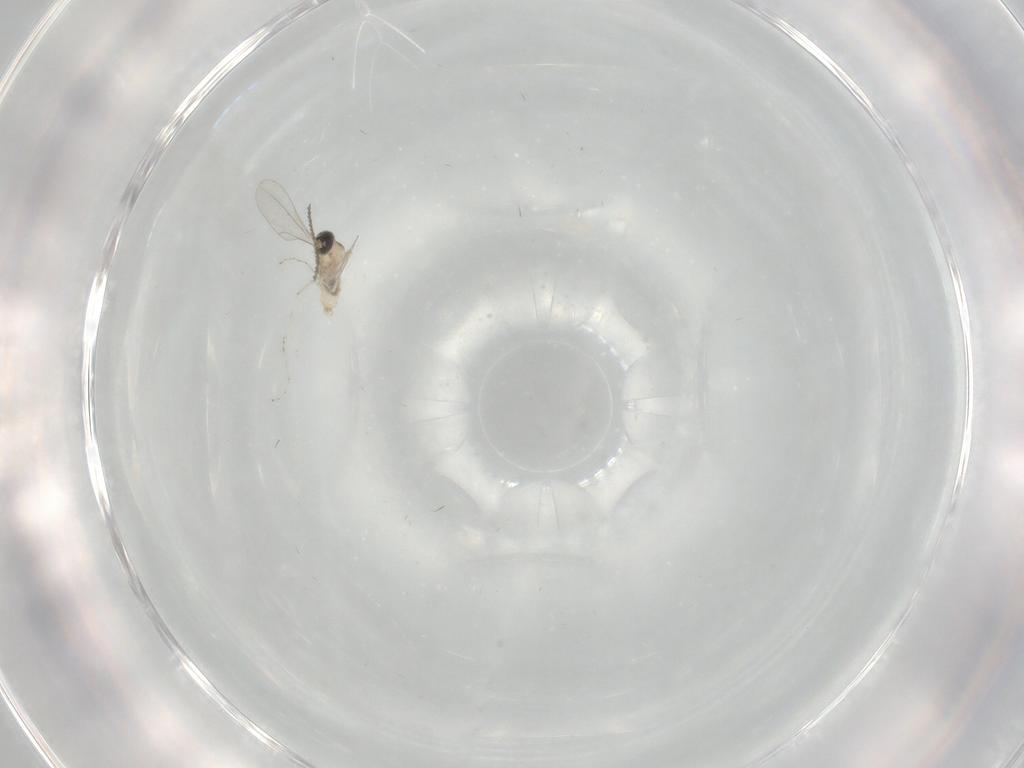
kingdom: Animalia
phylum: Arthropoda
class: Insecta
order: Diptera
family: Cecidomyiidae
